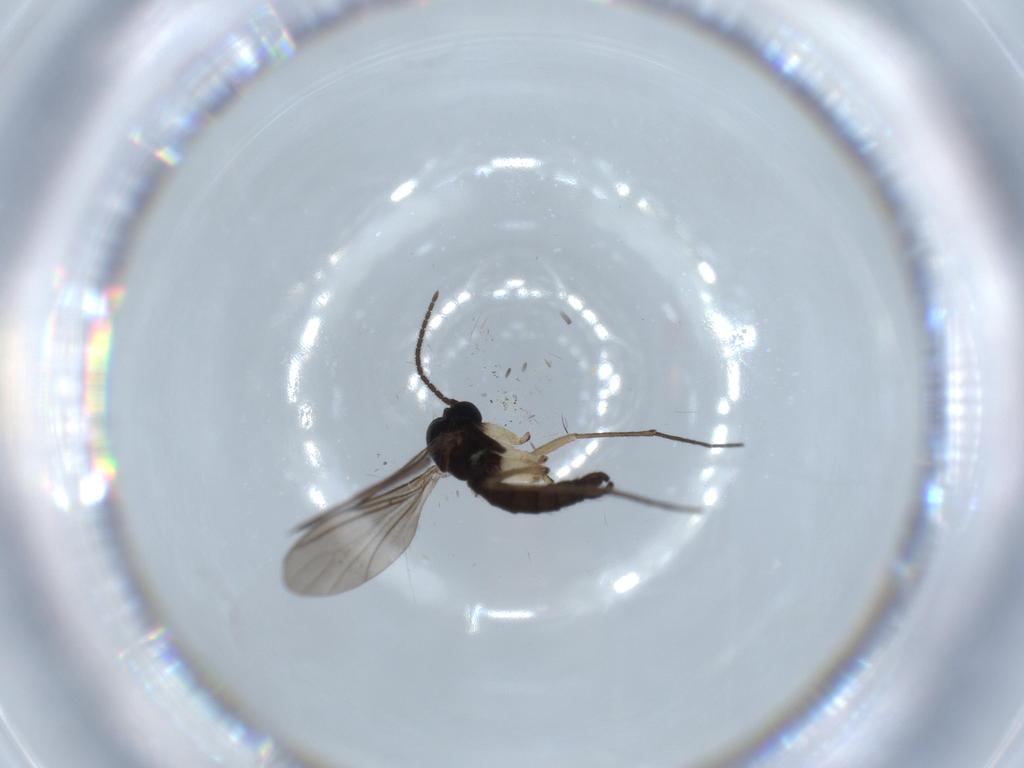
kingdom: Animalia
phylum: Arthropoda
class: Insecta
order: Diptera
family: Sciaridae
